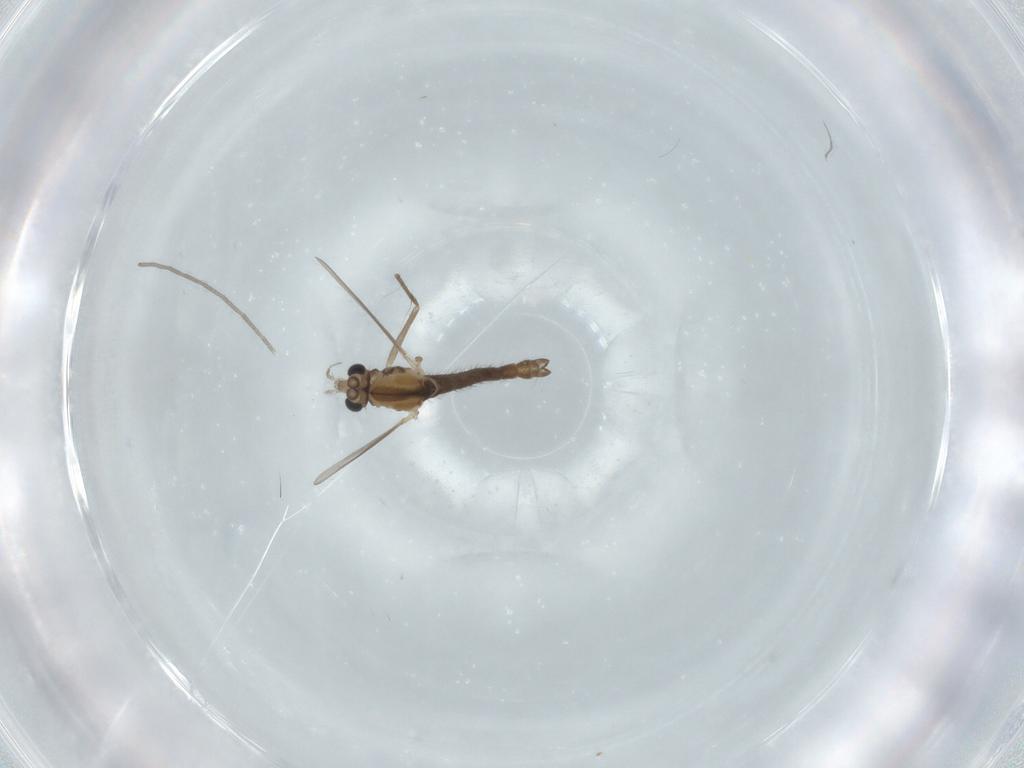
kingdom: Animalia
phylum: Arthropoda
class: Insecta
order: Diptera
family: Chironomidae
